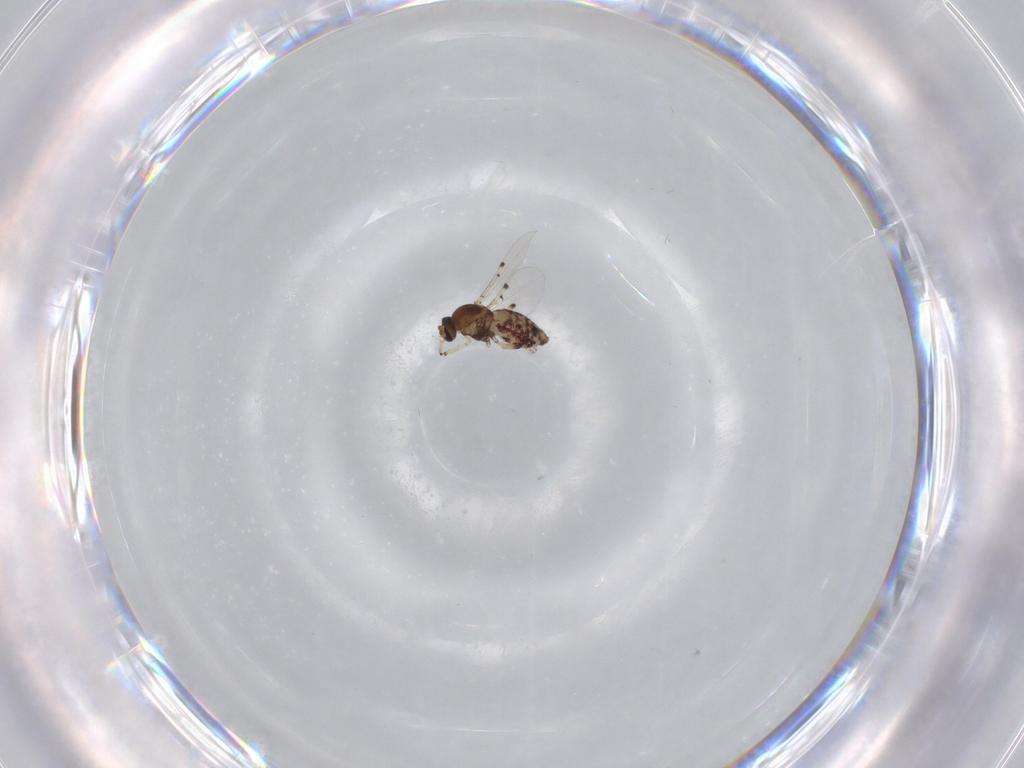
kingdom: Animalia
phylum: Arthropoda
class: Insecta
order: Diptera
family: Ceratopogonidae
